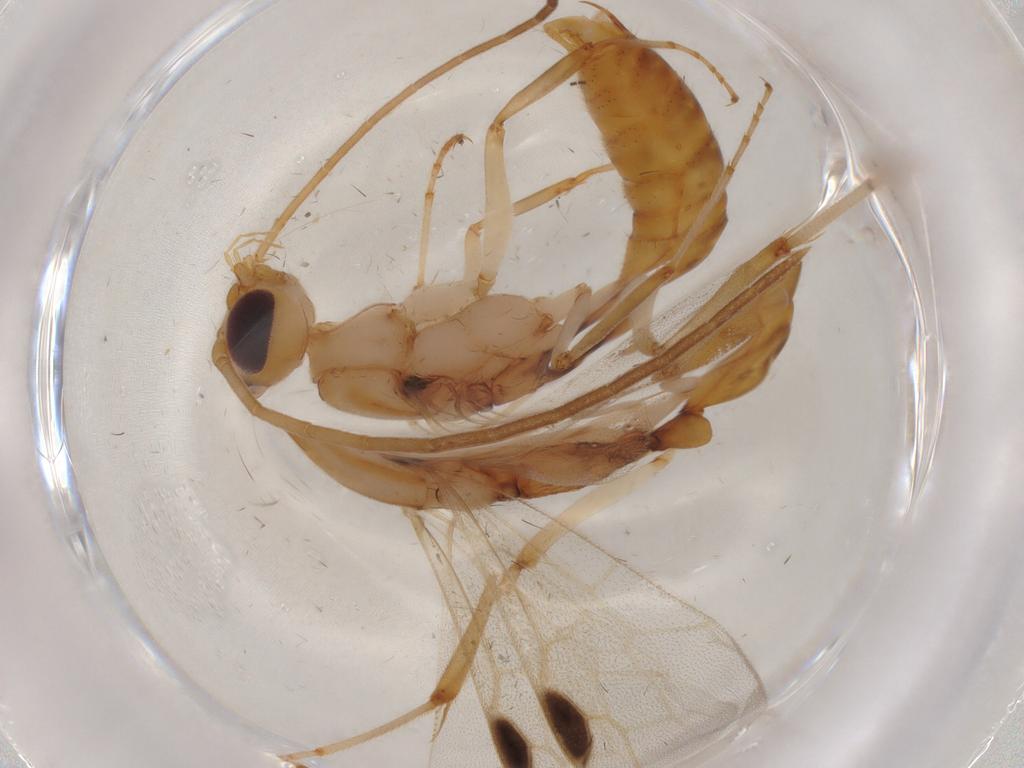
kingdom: Animalia
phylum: Arthropoda
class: Insecta
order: Hymenoptera
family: Formicidae
